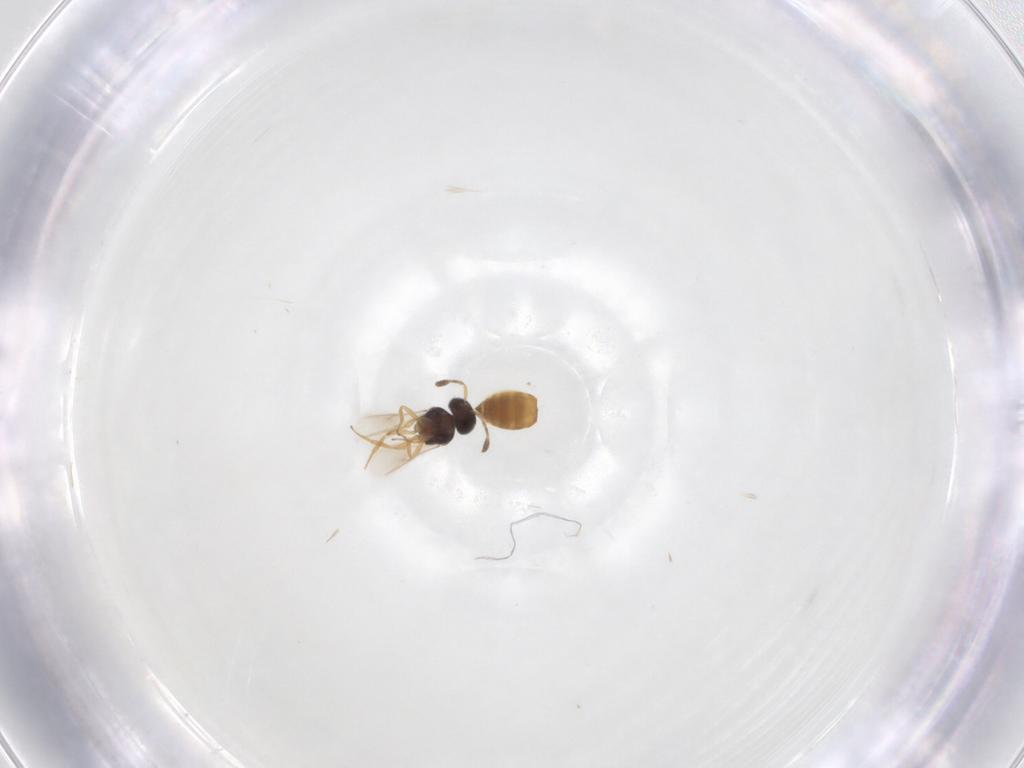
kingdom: Animalia
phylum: Arthropoda
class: Insecta
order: Hymenoptera
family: Scelionidae
